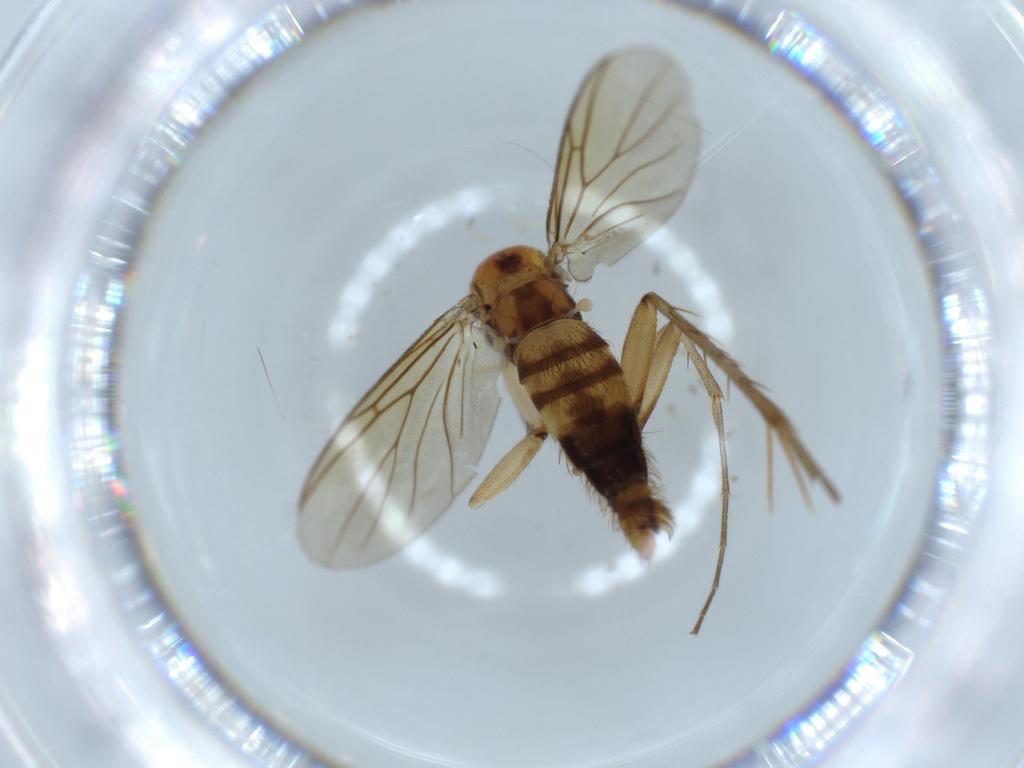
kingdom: Animalia
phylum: Arthropoda
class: Insecta
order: Diptera
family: Mycetophilidae
